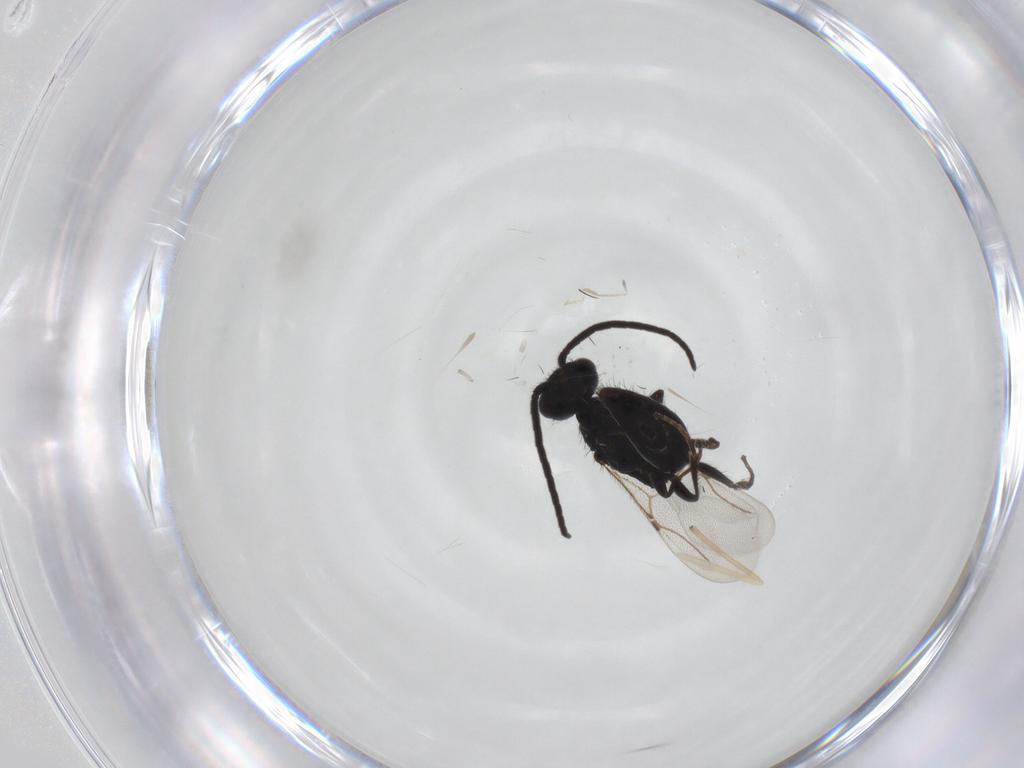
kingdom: Animalia
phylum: Arthropoda
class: Insecta
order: Hymenoptera
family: Bethylidae
